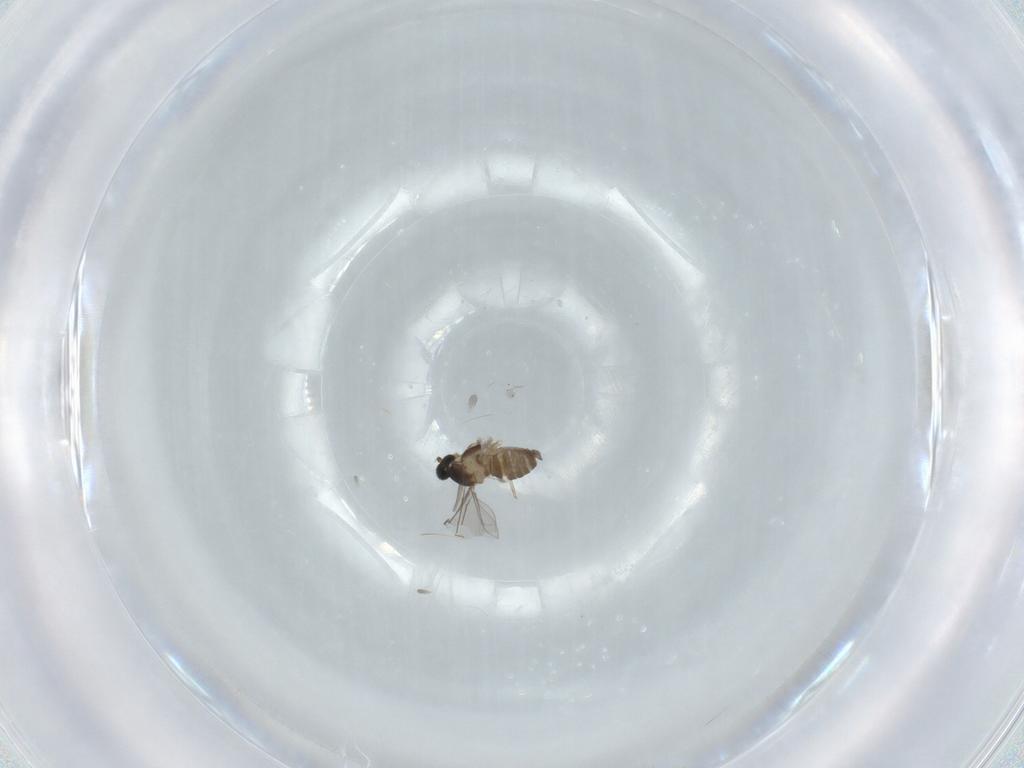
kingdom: Animalia
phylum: Arthropoda
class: Insecta
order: Diptera
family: Cecidomyiidae
